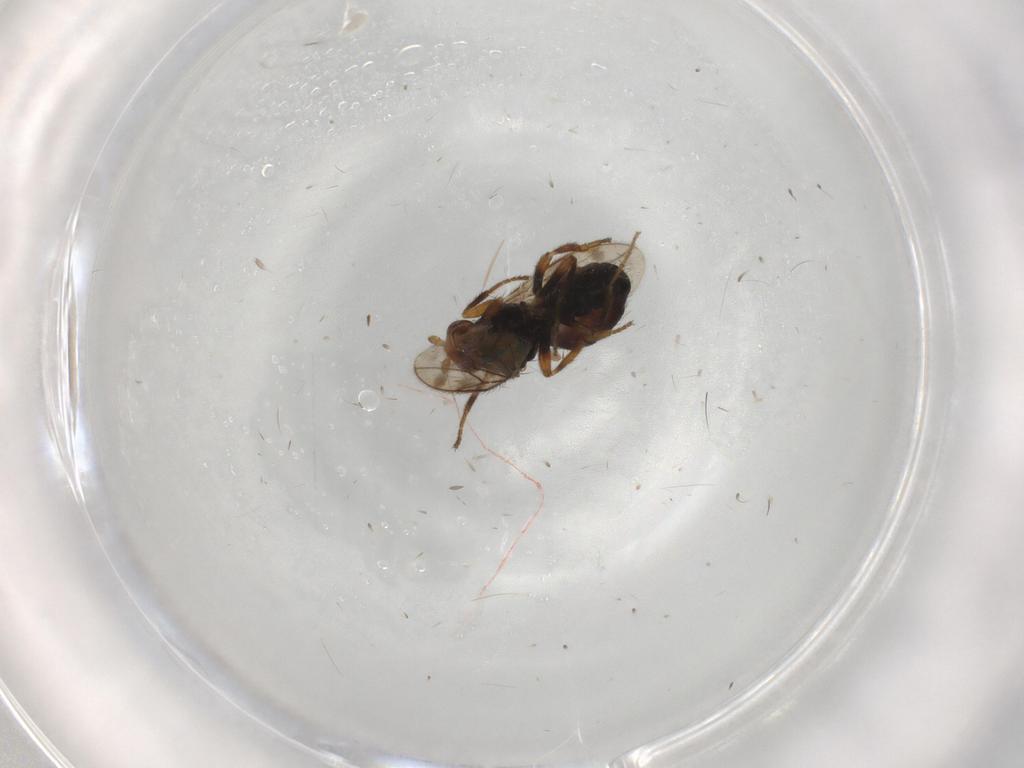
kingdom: Animalia
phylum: Arthropoda
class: Insecta
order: Diptera
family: Sphaeroceridae
